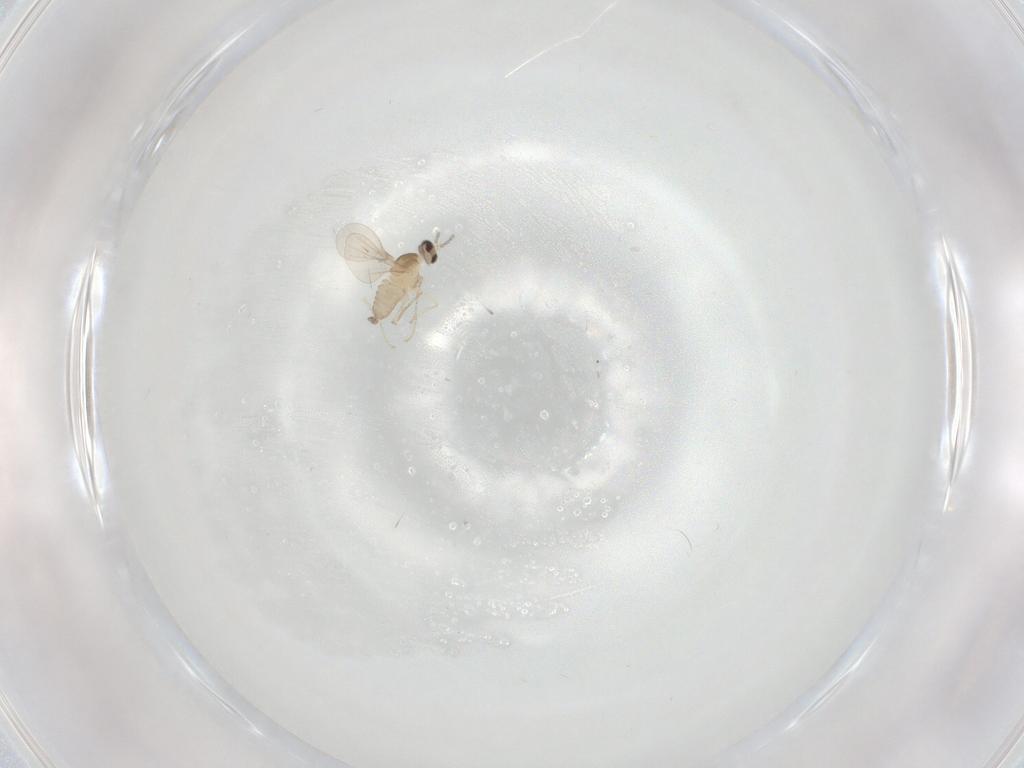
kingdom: Animalia
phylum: Arthropoda
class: Insecta
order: Diptera
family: Cecidomyiidae
